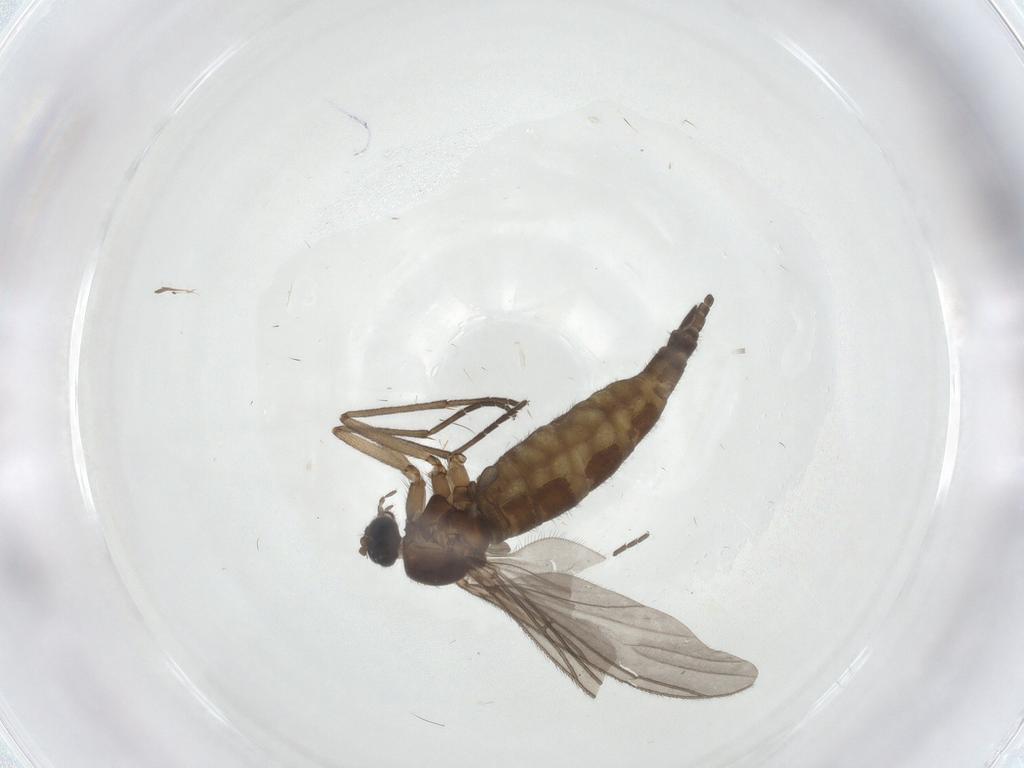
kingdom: Animalia
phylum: Arthropoda
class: Insecta
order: Diptera
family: Sciaridae
